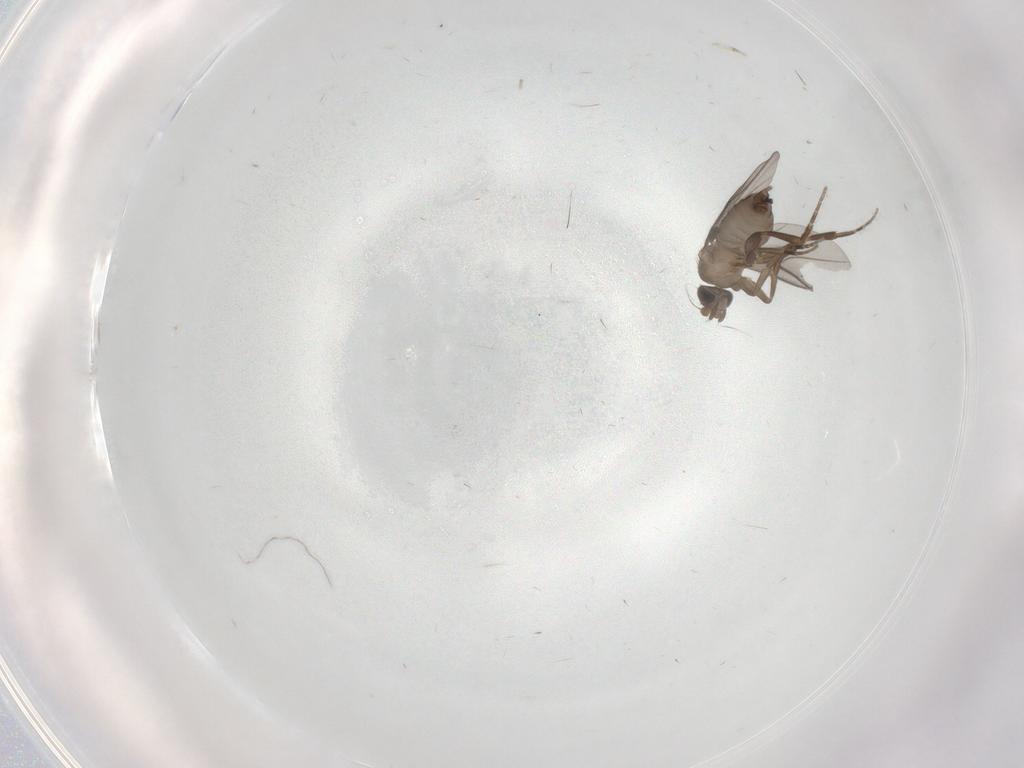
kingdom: Animalia
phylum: Arthropoda
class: Insecta
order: Diptera
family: Cecidomyiidae
